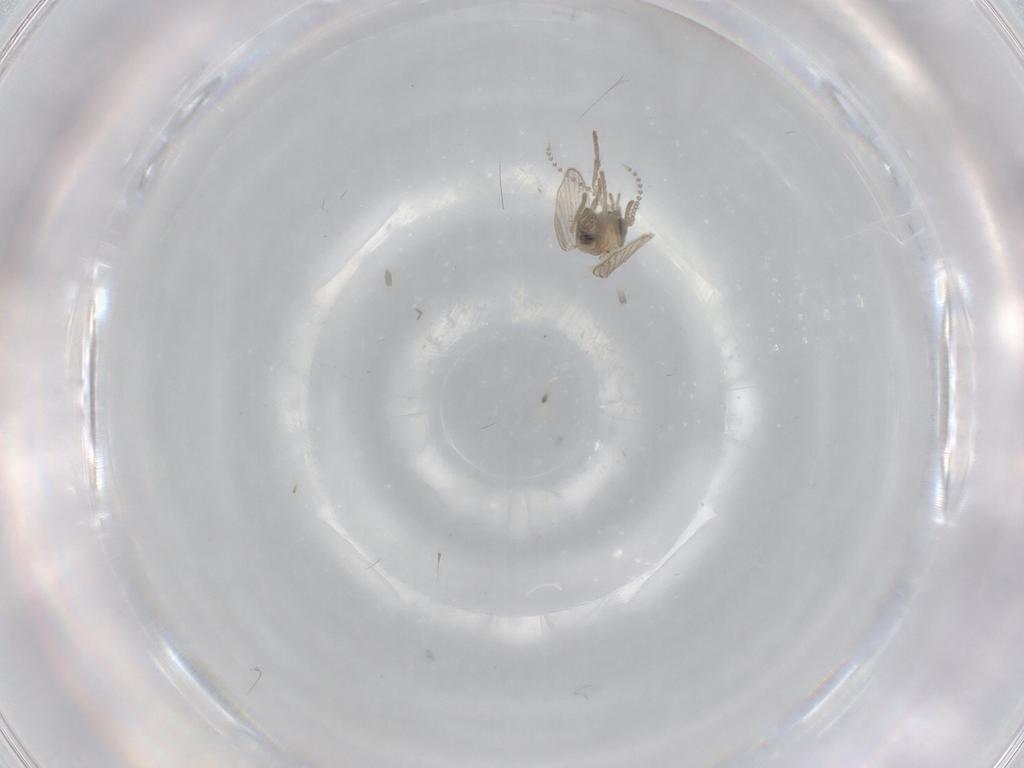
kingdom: Animalia
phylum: Arthropoda
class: Insecta
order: Diptera
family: Psychodidae
